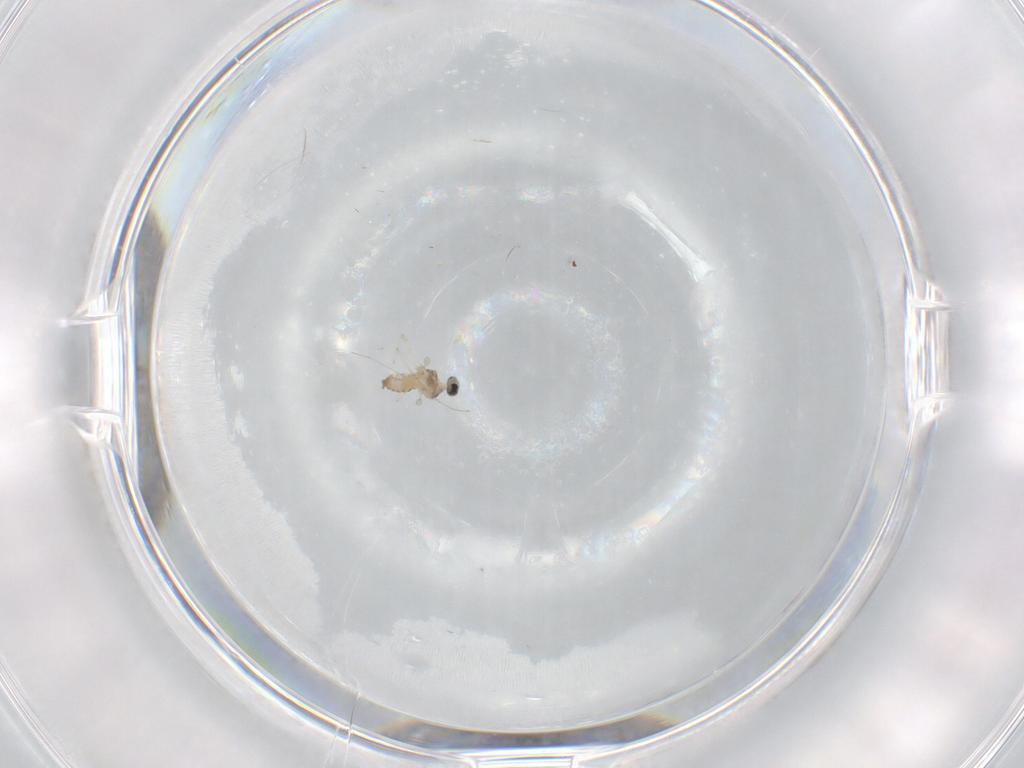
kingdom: Animalia
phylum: Arthropoda
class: Insecta
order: Diptera
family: Cecidomyiidae
